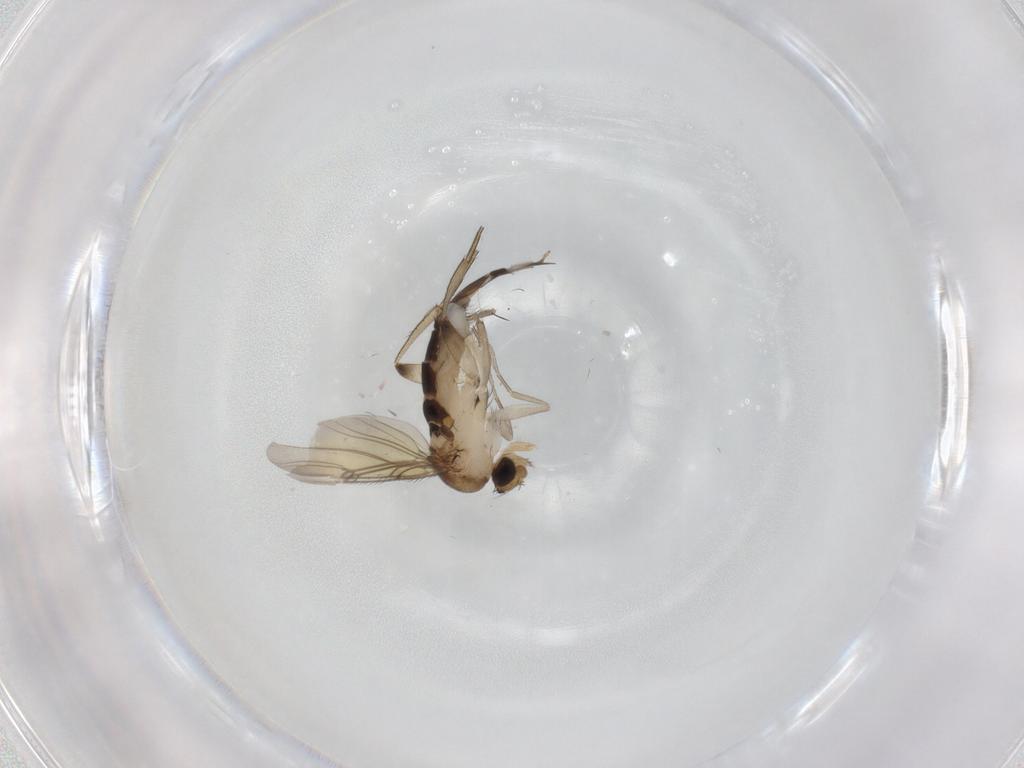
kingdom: Animalia
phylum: Arthropoda
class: Insecta
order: Diptera
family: Phoridae
